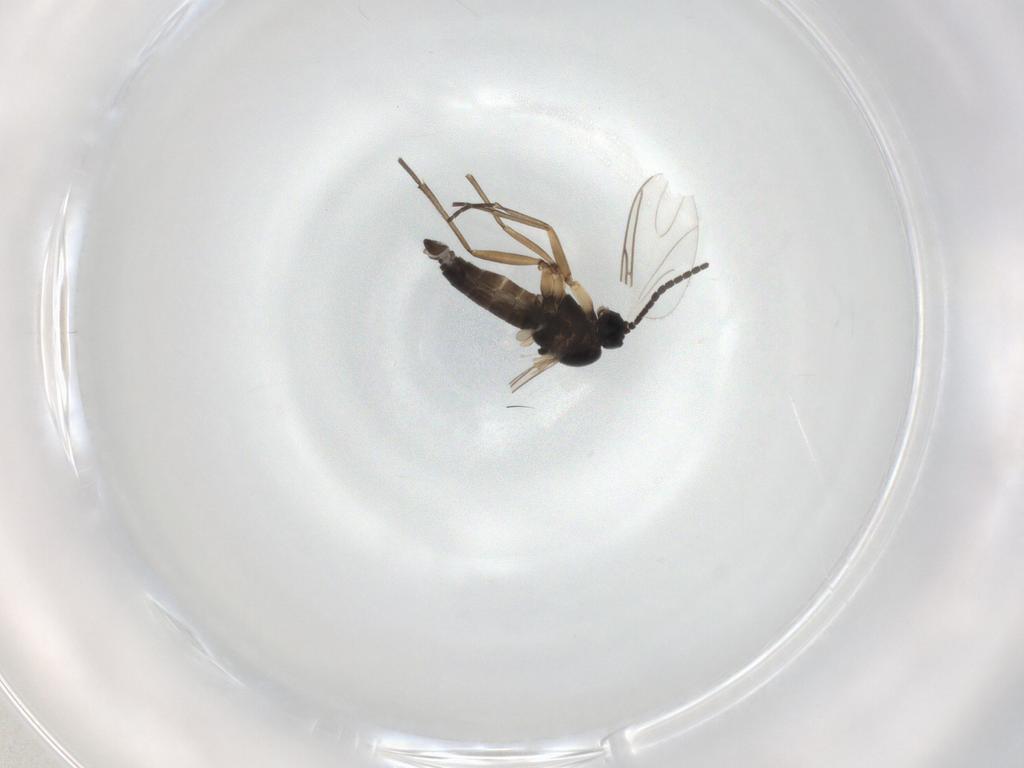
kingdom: Animalia
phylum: Arthropoda
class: Insecta
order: Diptera
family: Sciaridae
